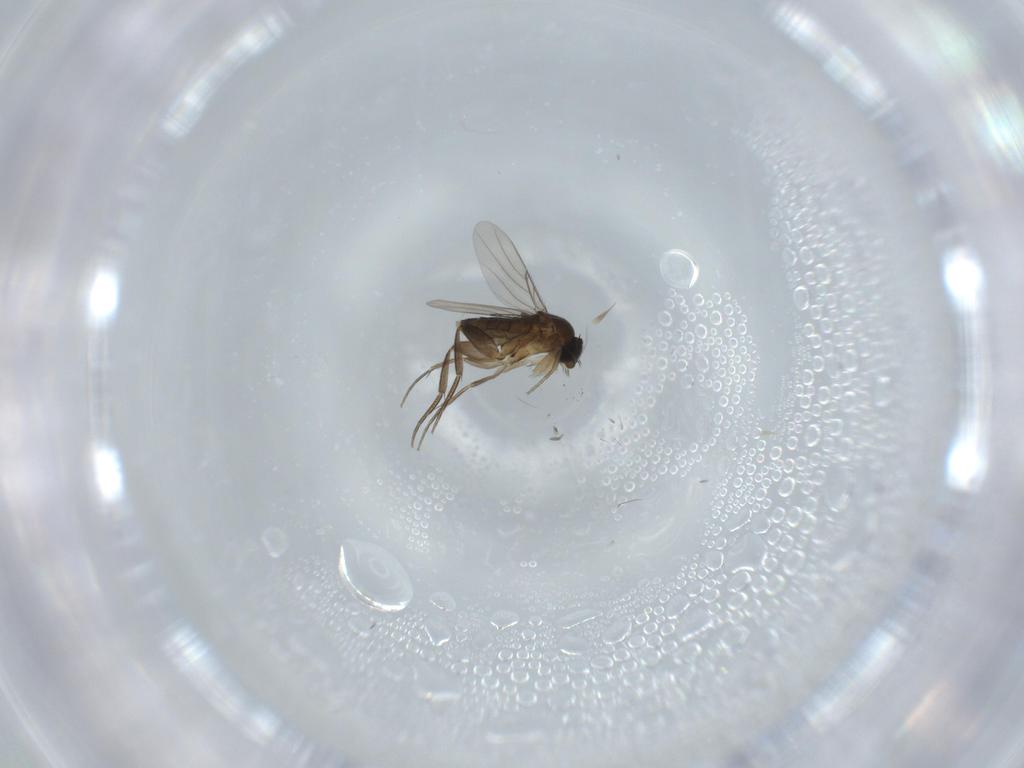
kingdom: Animalia
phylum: Arthropoda
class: Insecta
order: Diptera
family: Phoridae
